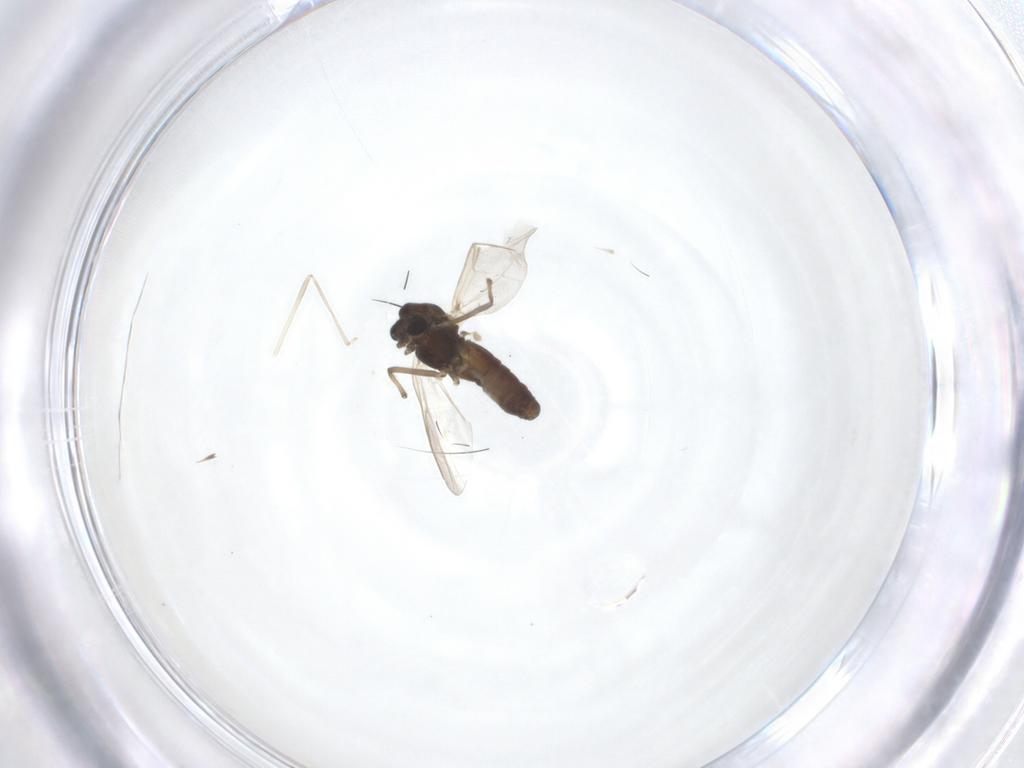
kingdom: Animalia
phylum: Arthropoda
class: Insecta
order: Diptera
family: Chironomidae
